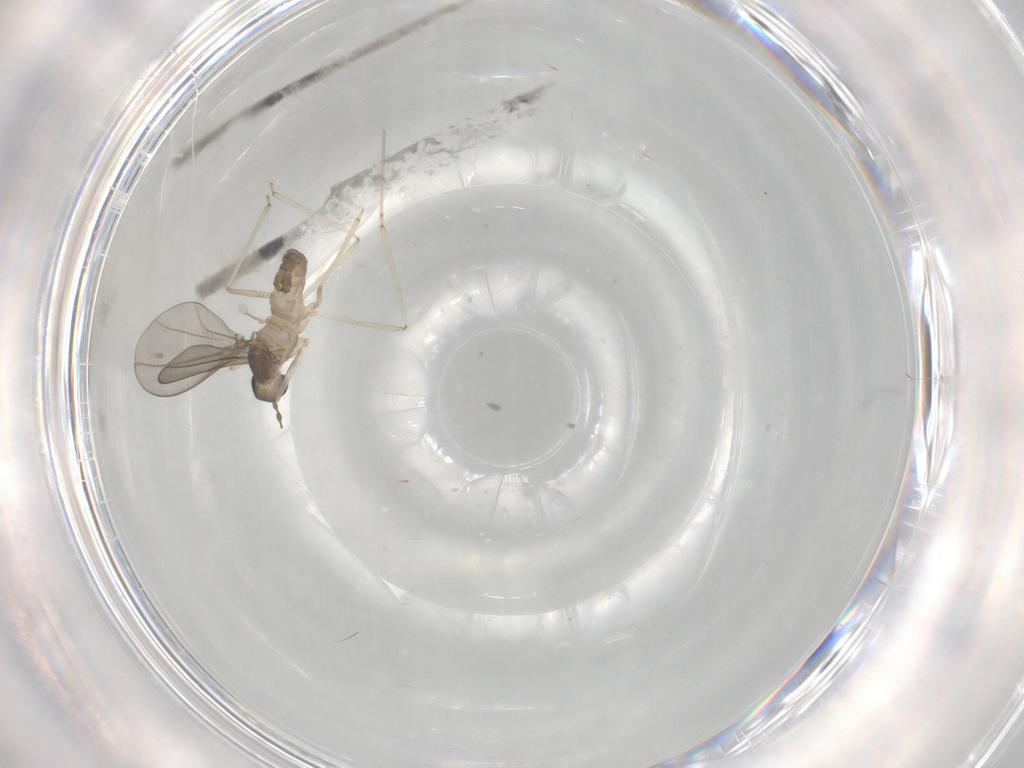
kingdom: Animalia
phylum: Arthropoda
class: Insecta
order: Diptera
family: Cecidomyiidae
